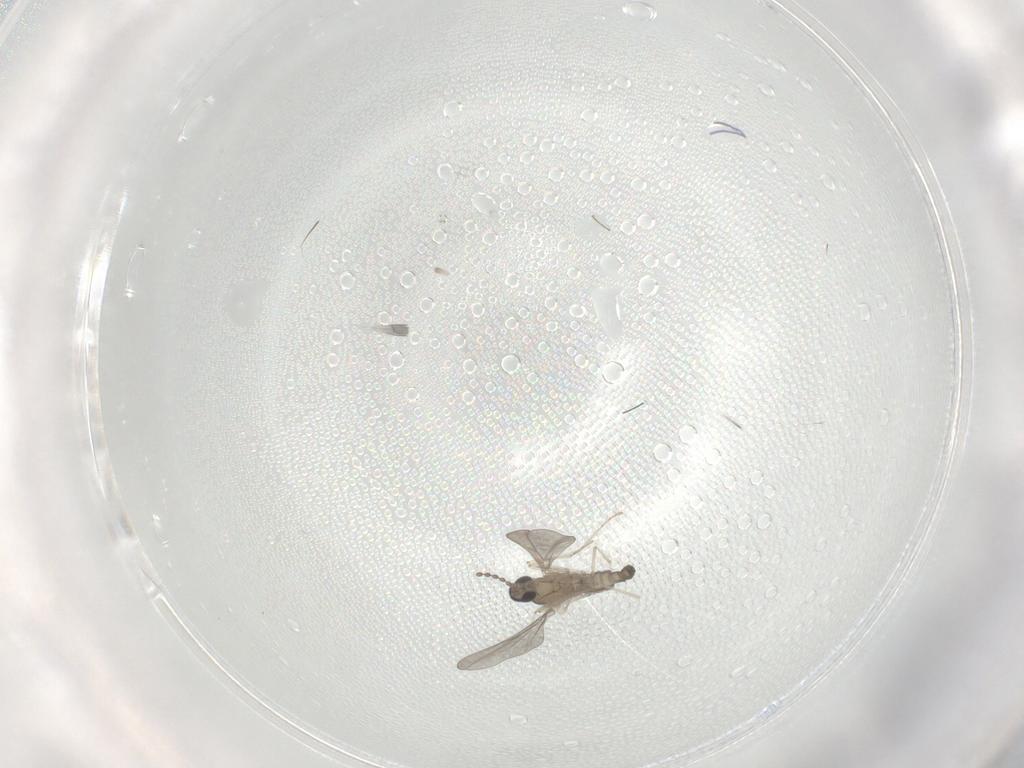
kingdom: Animalia
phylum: Arthropoda
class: Insecta
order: Diptera
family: Cecidomyiidae
